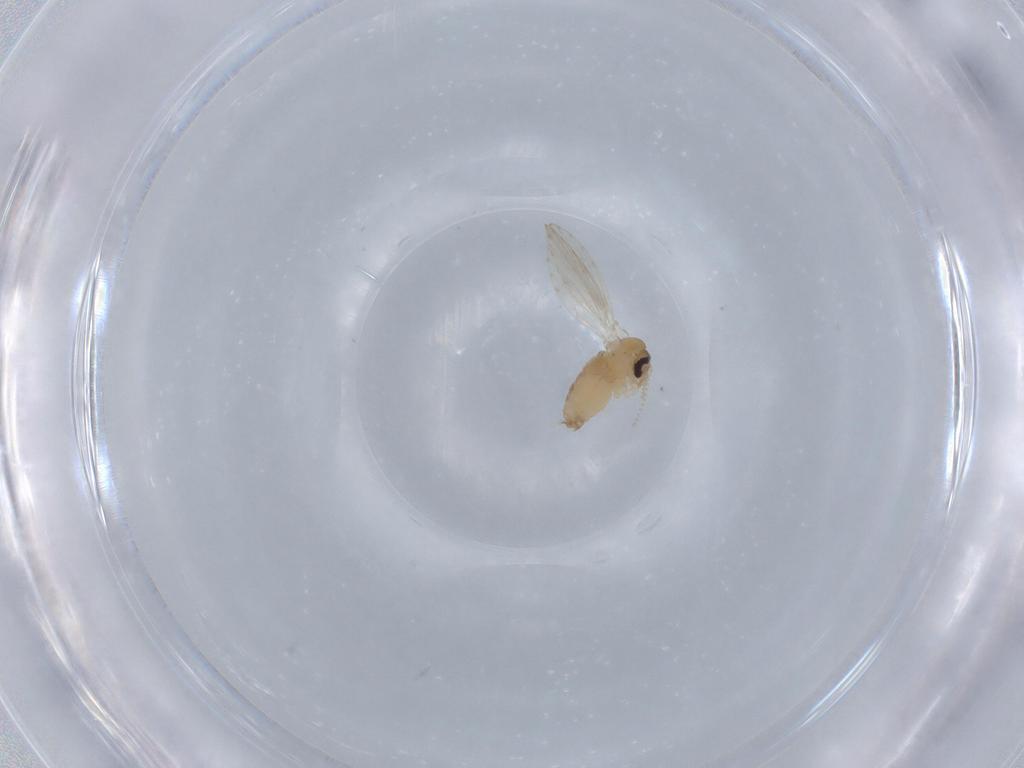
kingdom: Animalia
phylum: Arthropoda
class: Insecta
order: Diptera
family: Psychodidae
